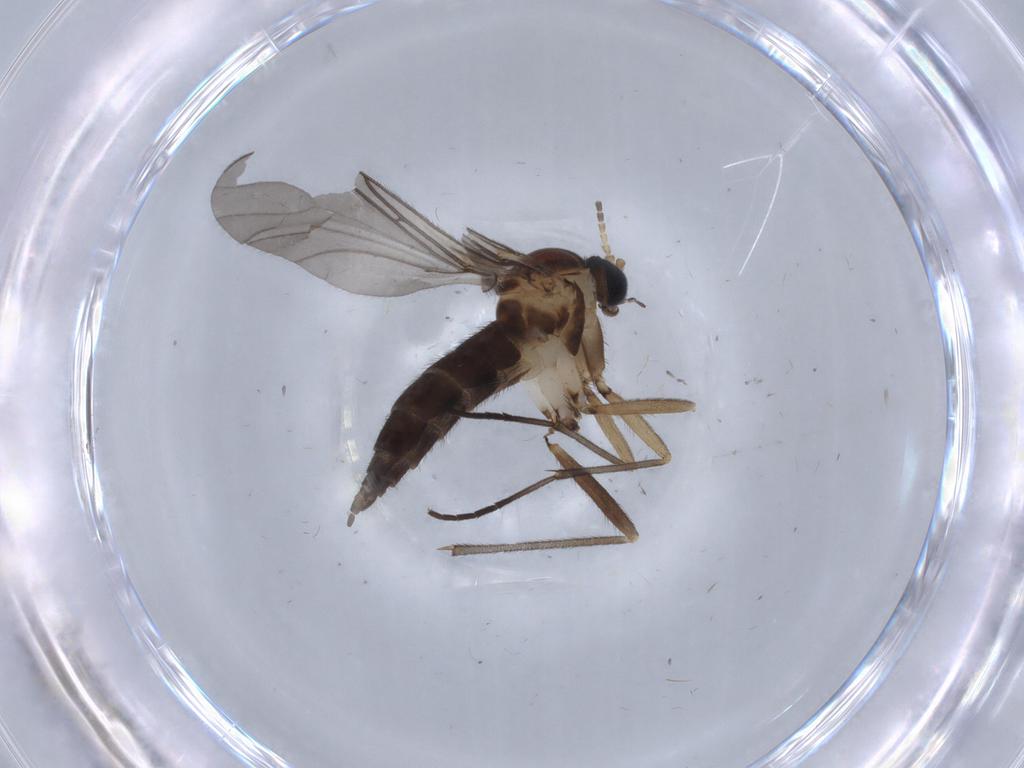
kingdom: Animalia
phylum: Arthropoda
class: Insecta
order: Diptera
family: Sciaridae
